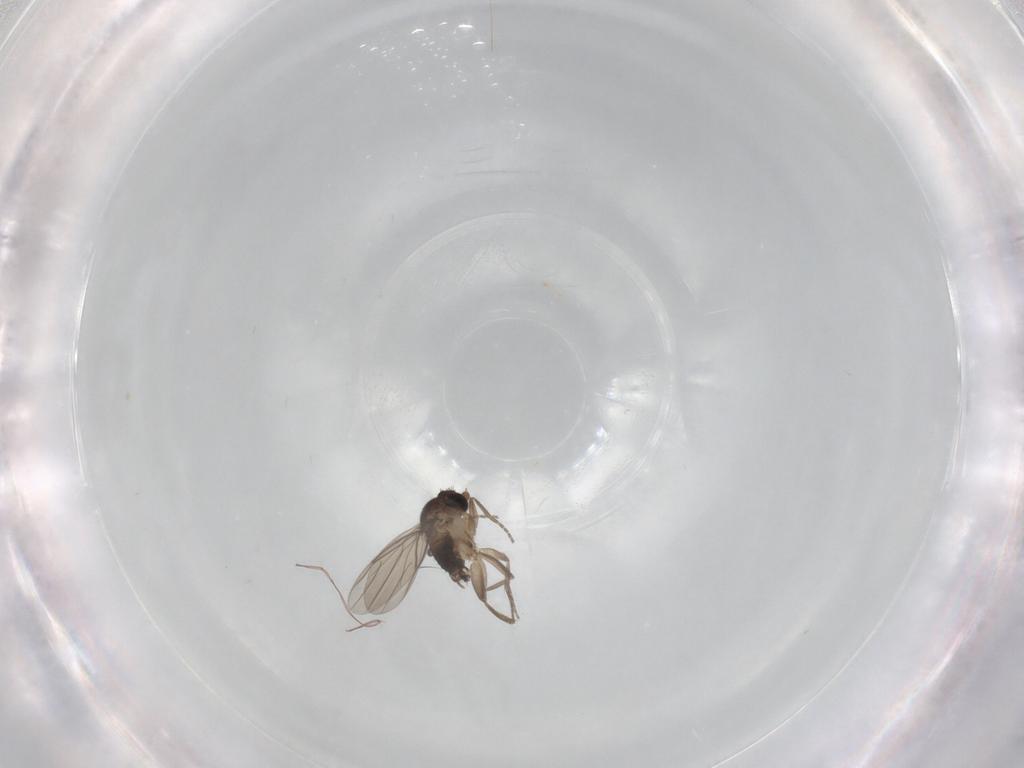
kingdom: Animalia
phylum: Arthropoda
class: Insecta
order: Diptera
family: Phoridae
